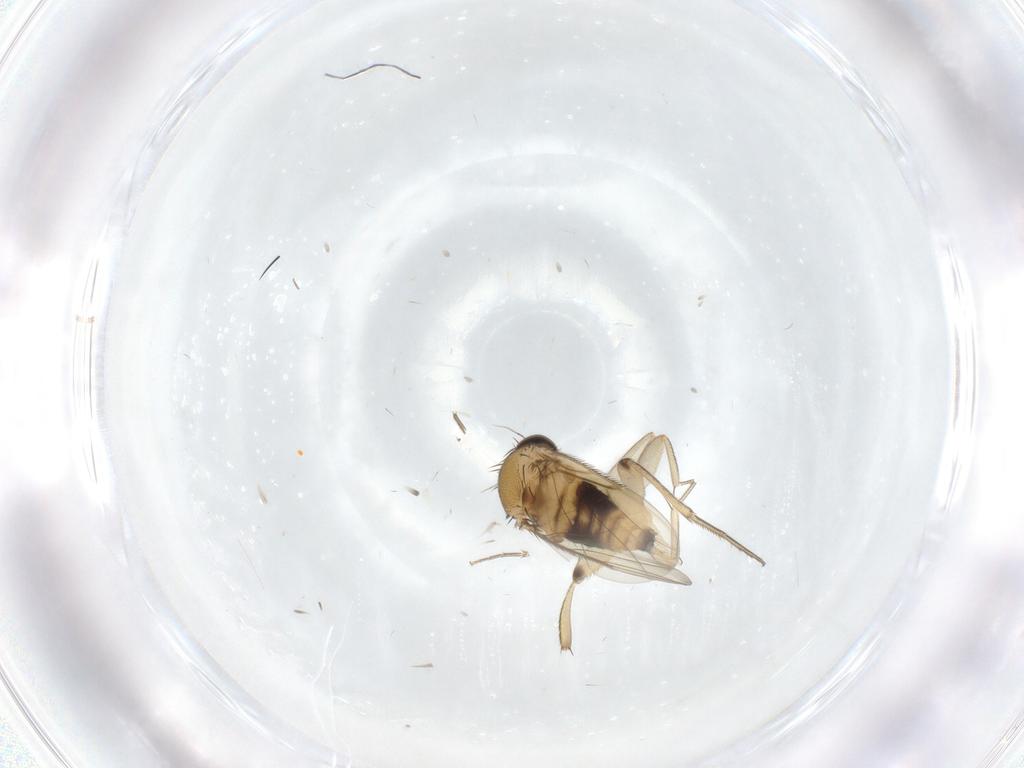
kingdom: Animalia
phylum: Arthropoda
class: Insecta
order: Diptera
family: Phoridae
